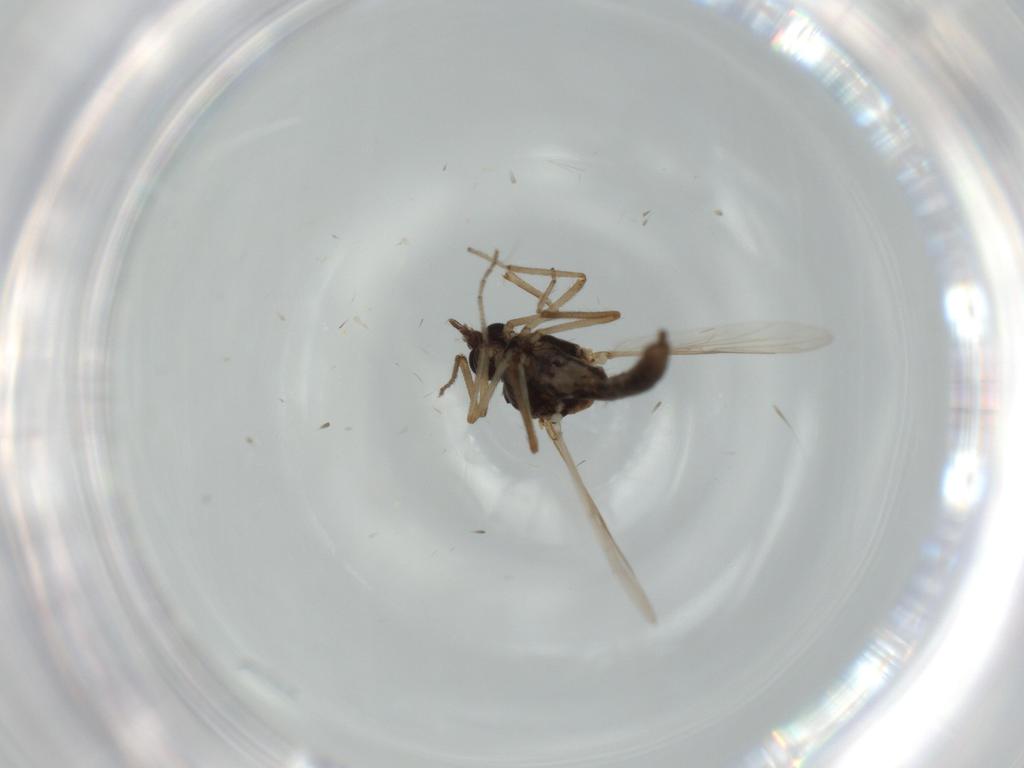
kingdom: Animalia
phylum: Arthropoda
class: Insecta
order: Diptera
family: Ceratopogonidae
